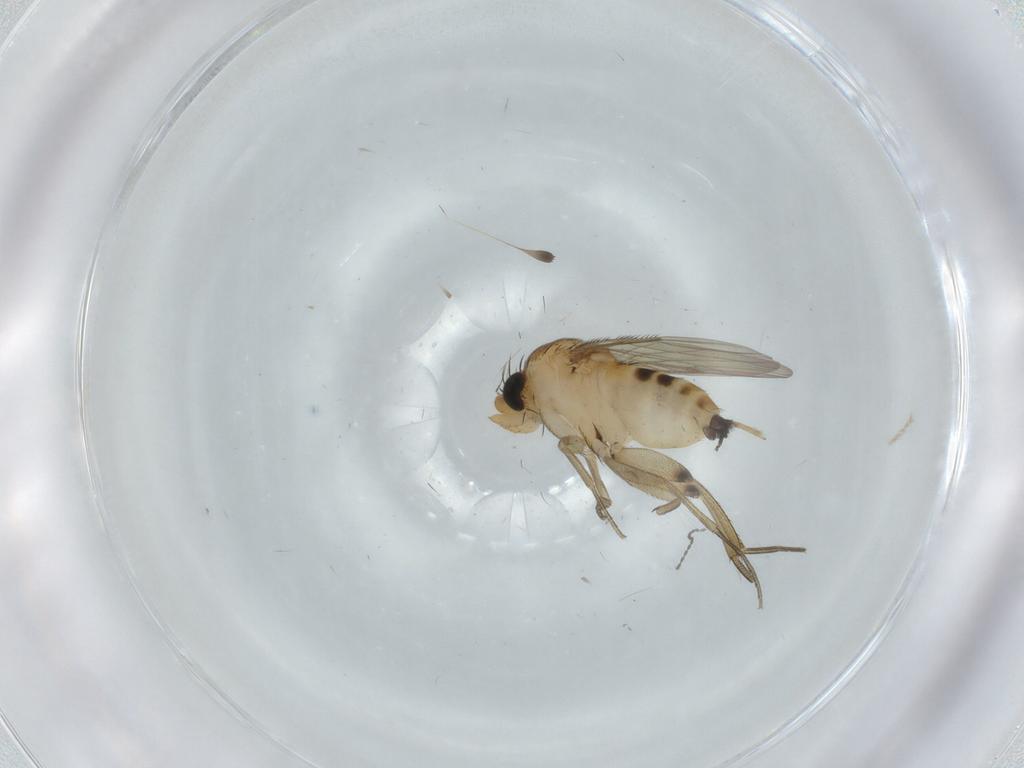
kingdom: Animalia
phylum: Arthropoda
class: Insecta
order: Diptera
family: Phoridae
